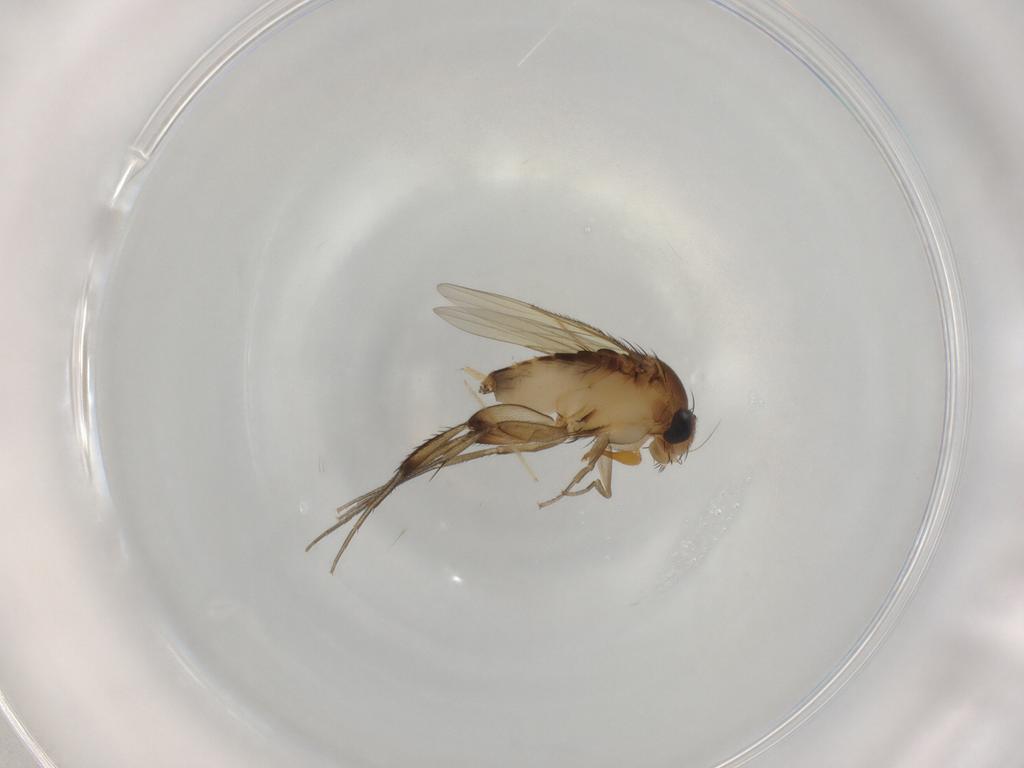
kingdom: Animalia
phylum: Arthropoda
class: Insecta
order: Diptera
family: Phoridae
